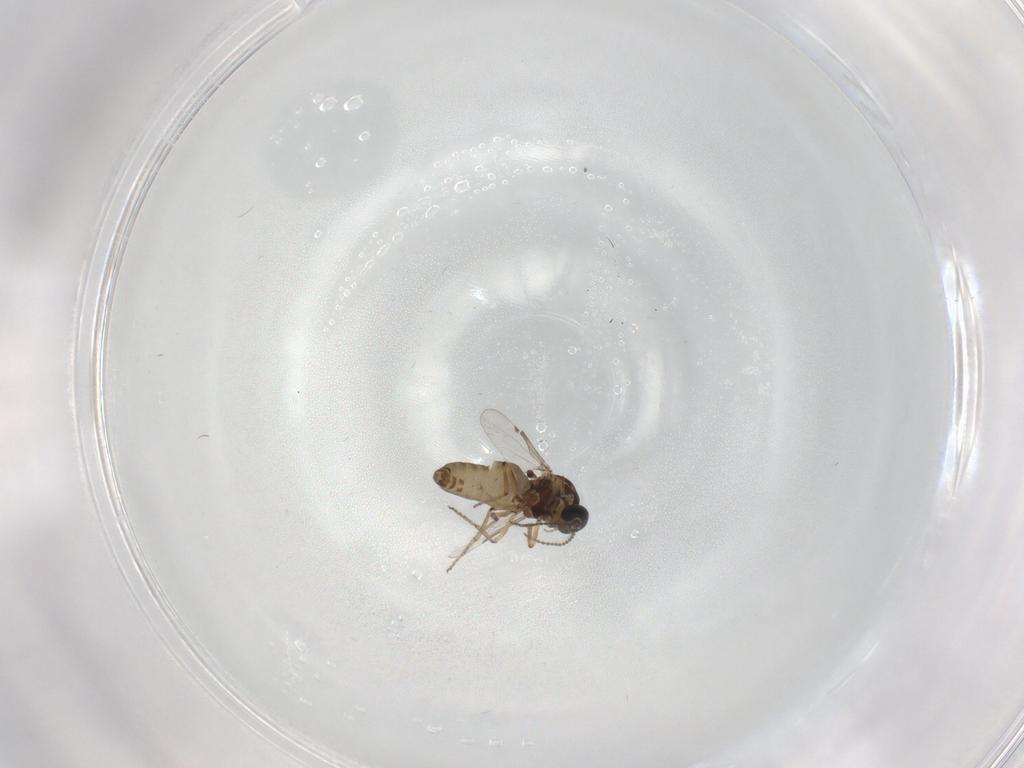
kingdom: Animalia
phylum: Arthropoda
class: Insecta
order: Diptera
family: Ceratopogonidae
